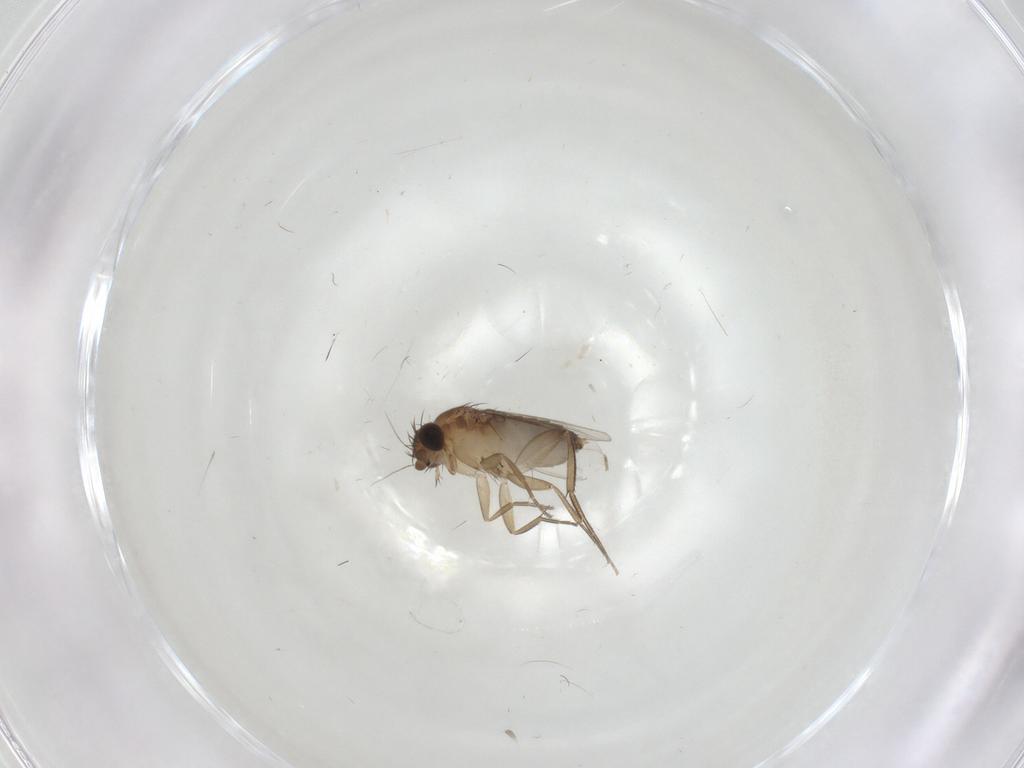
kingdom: Animalia
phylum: Arthropoda
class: Insecta
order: Diptera
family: Phoridae
